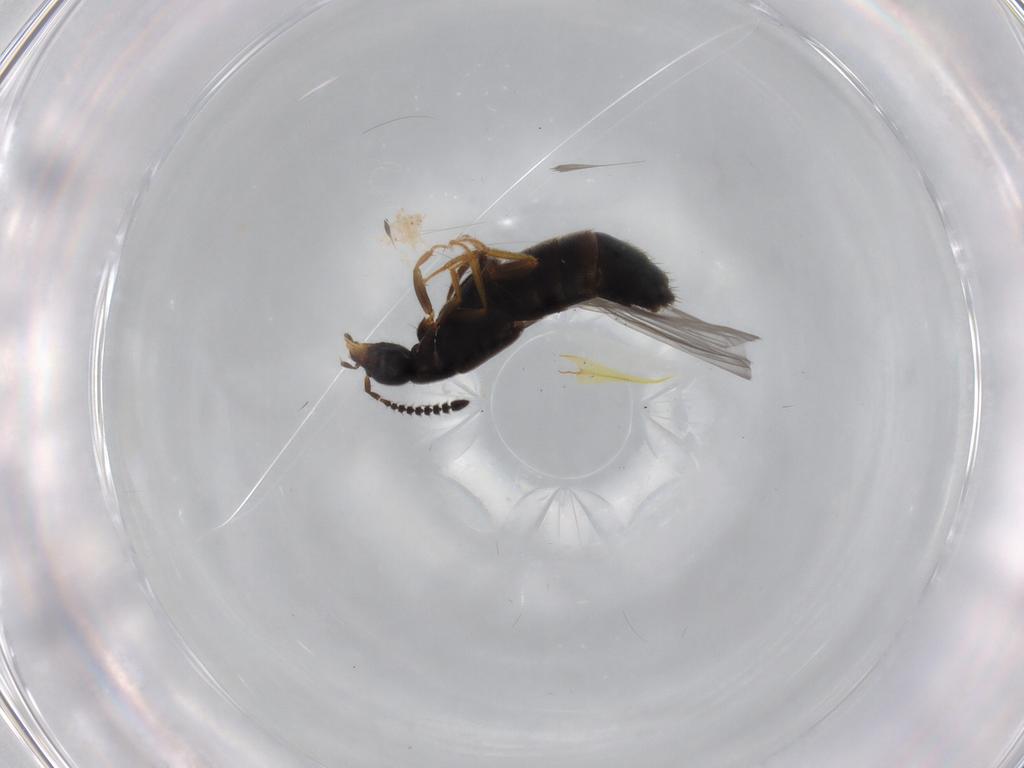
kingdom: Animalia
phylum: Arthropoda
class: Insecta
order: Coleoptera
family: Staphylinidae
